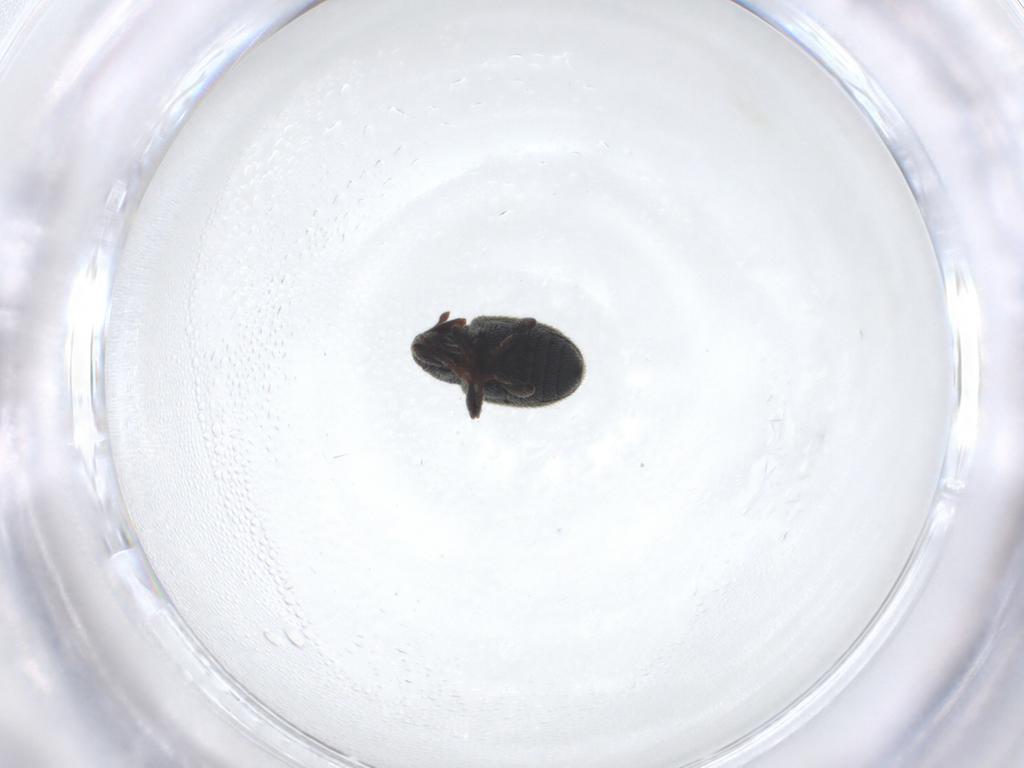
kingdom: Animalia
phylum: Arthropoda
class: Insecta
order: Coleoptera
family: Curculionidae
